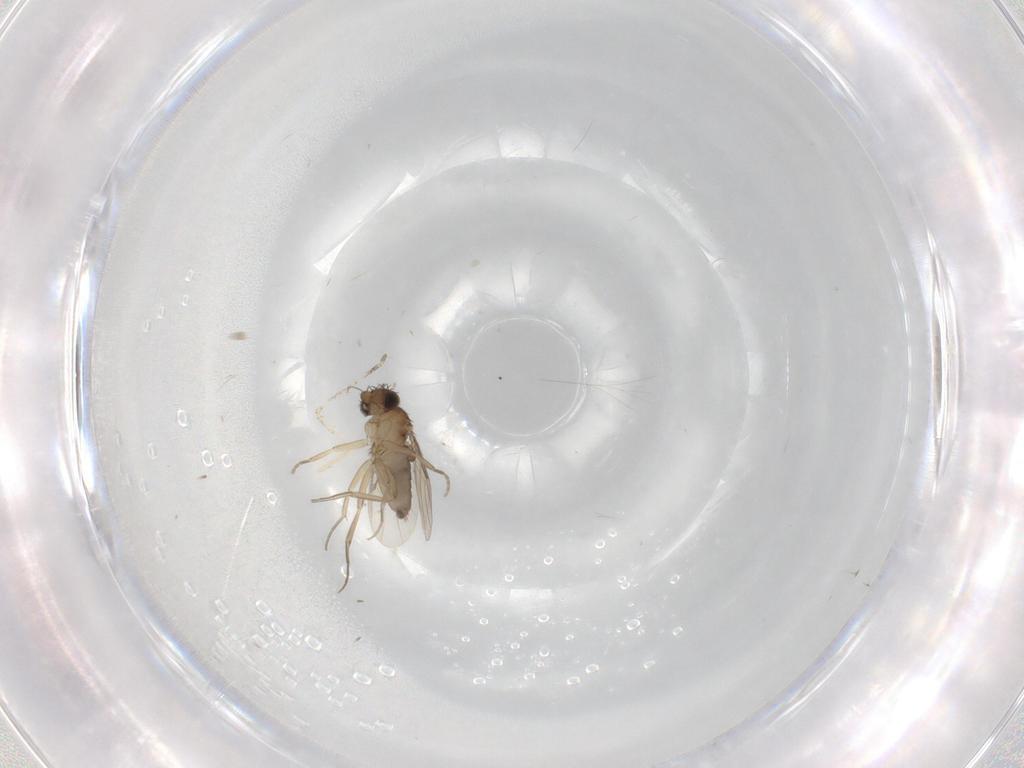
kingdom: Animalia
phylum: Arthropoda
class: Insecta
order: Diptera
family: Phoridae
